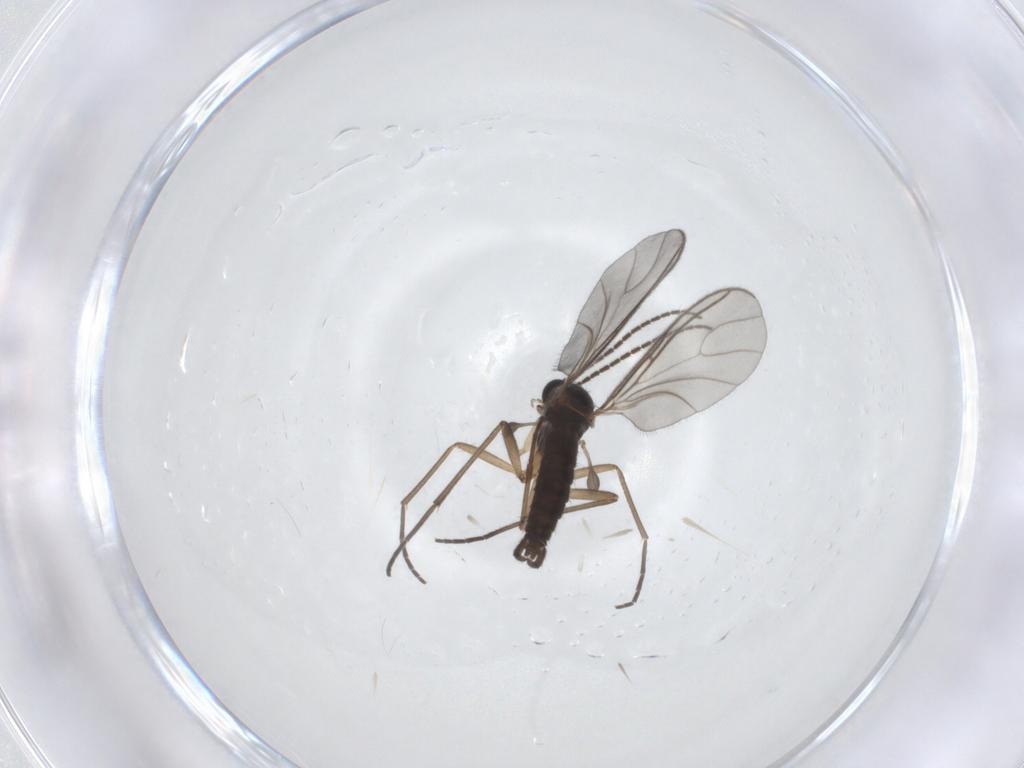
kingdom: Animalia
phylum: Arthropoda
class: Insecta
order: Diptera
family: Sciaridae
